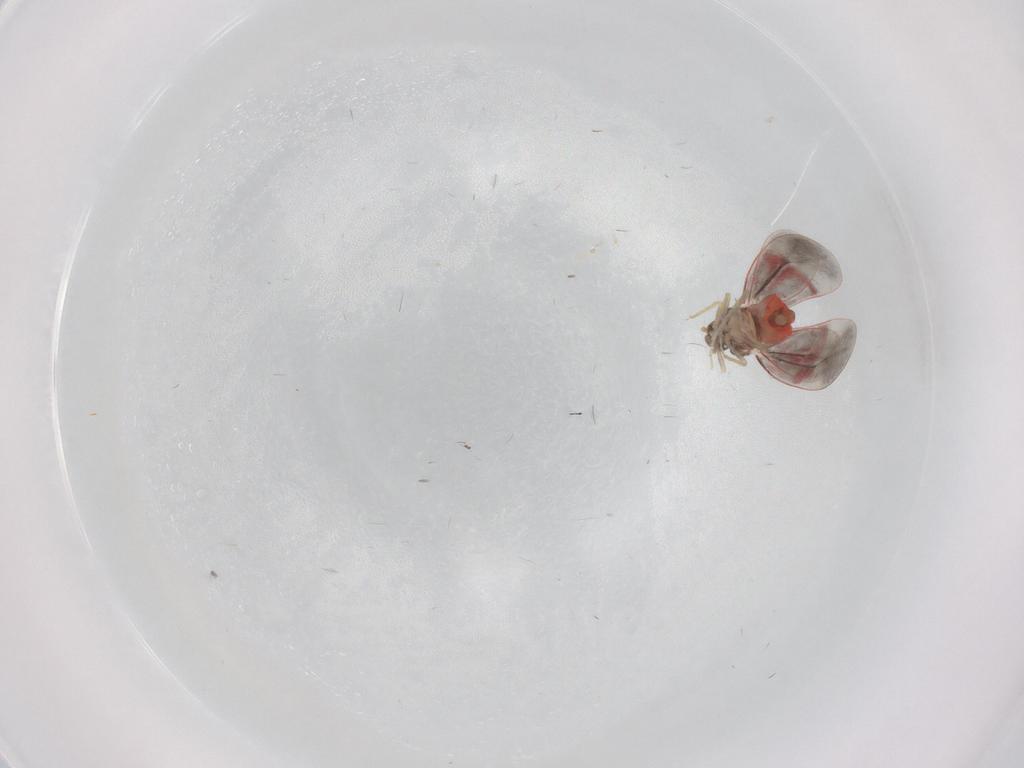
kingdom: Animalia
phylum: Arthropoda
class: Insecta
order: Hemiptera
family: Aleyrodidae
